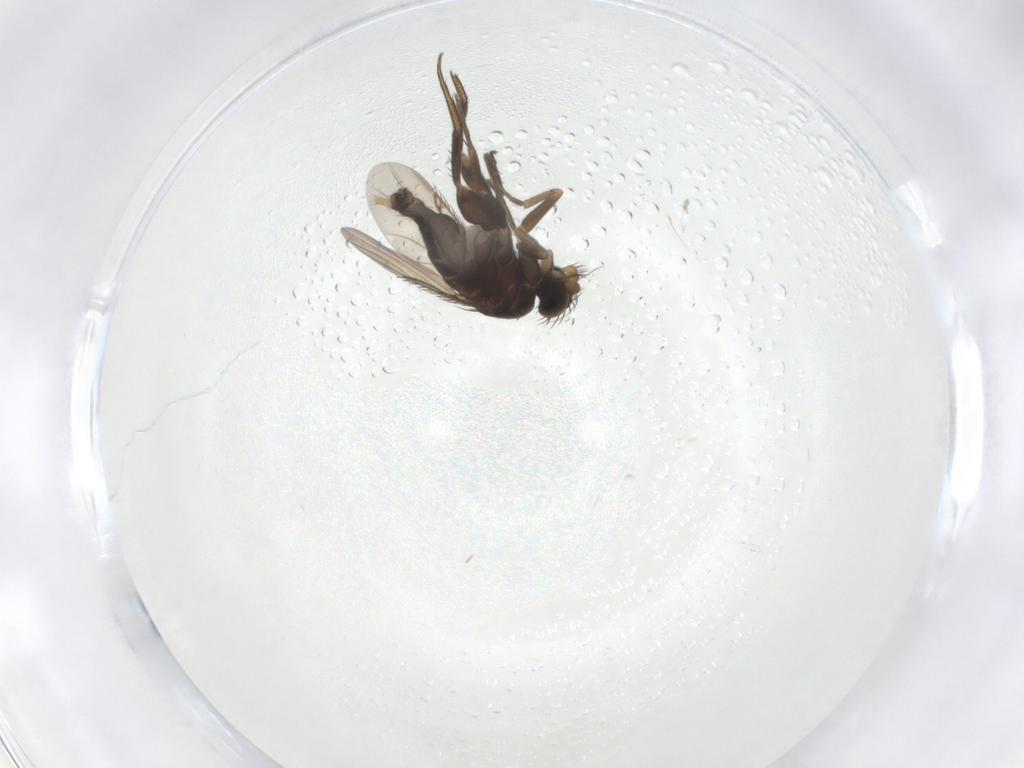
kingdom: Animalia
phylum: Arthropoda
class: Insecta
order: Diptera
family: Phoridae
